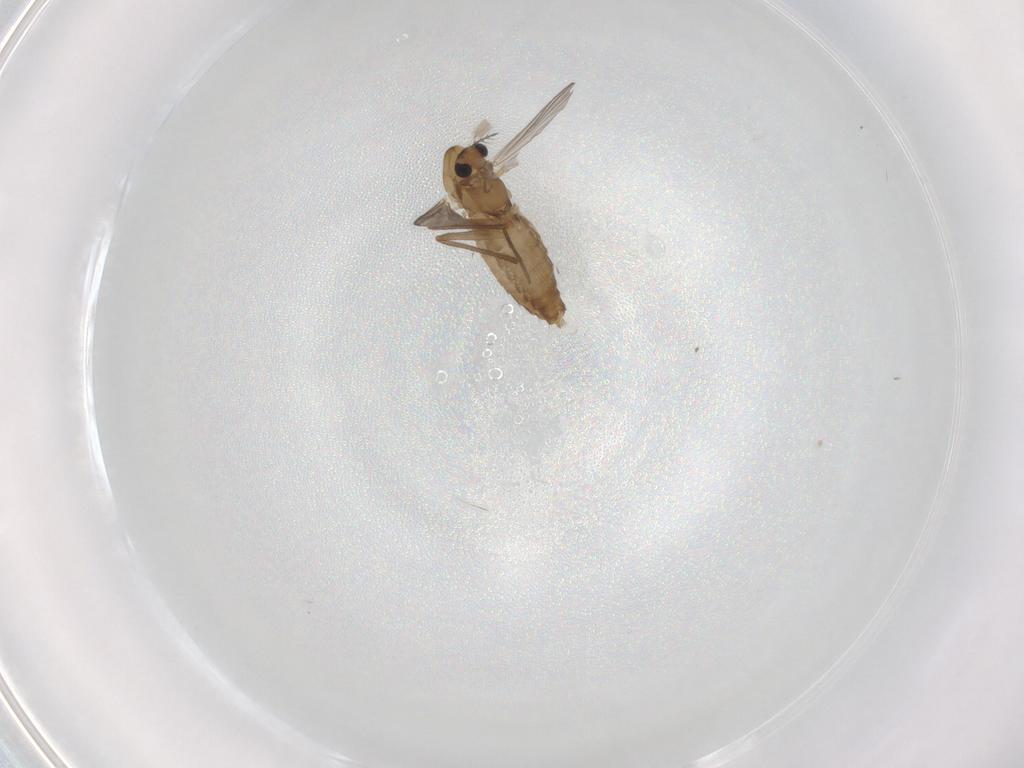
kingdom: Animalia
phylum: Arthropoda
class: Insecta
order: Diptera
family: Chironomidae
